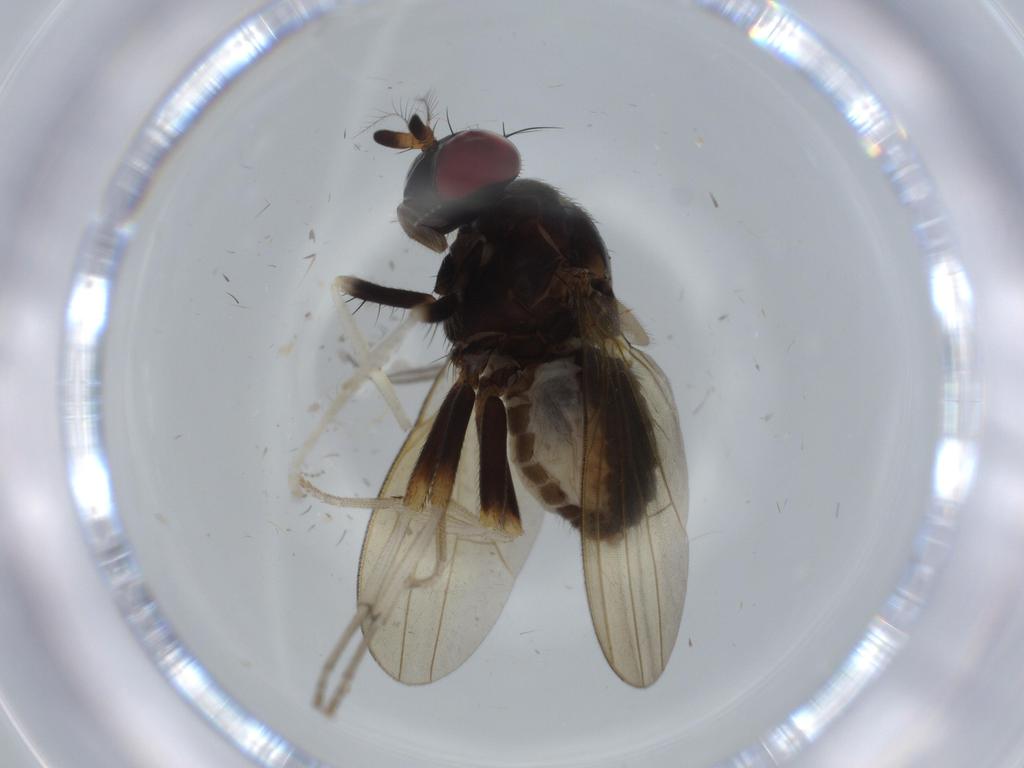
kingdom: Animalia
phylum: Arthropoda
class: Insecta
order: Diptera
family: Lauxaniidae
